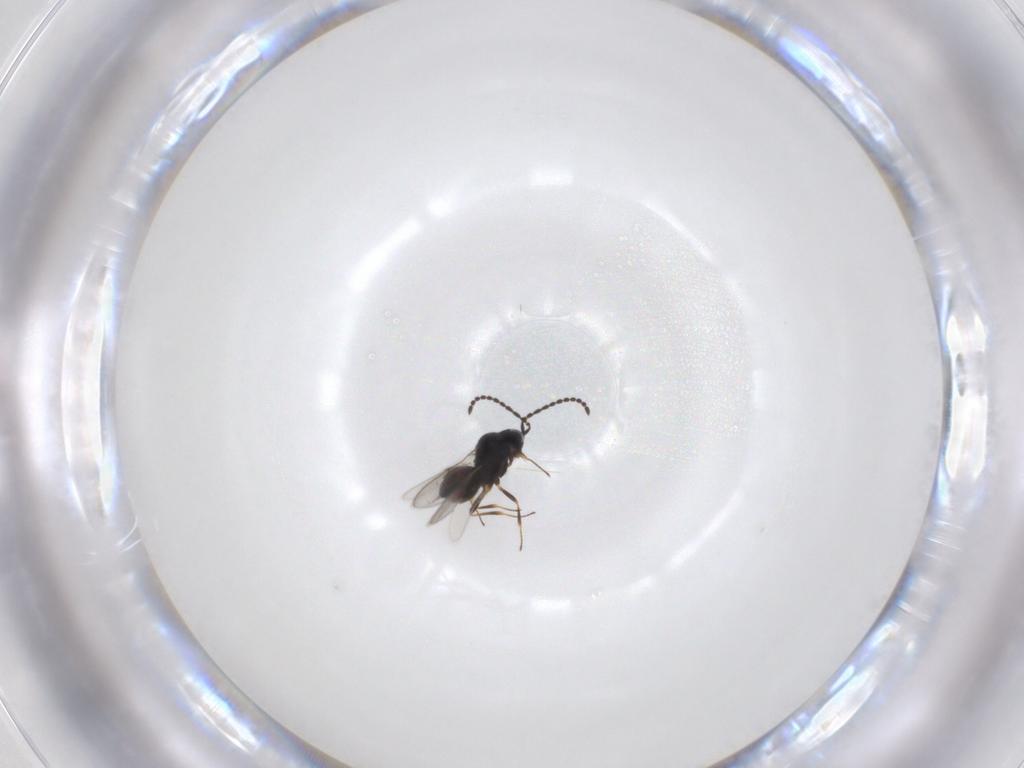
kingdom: Animalia
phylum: Arthropoda
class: Insecta
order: Hymenoptera
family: Scelionidae
